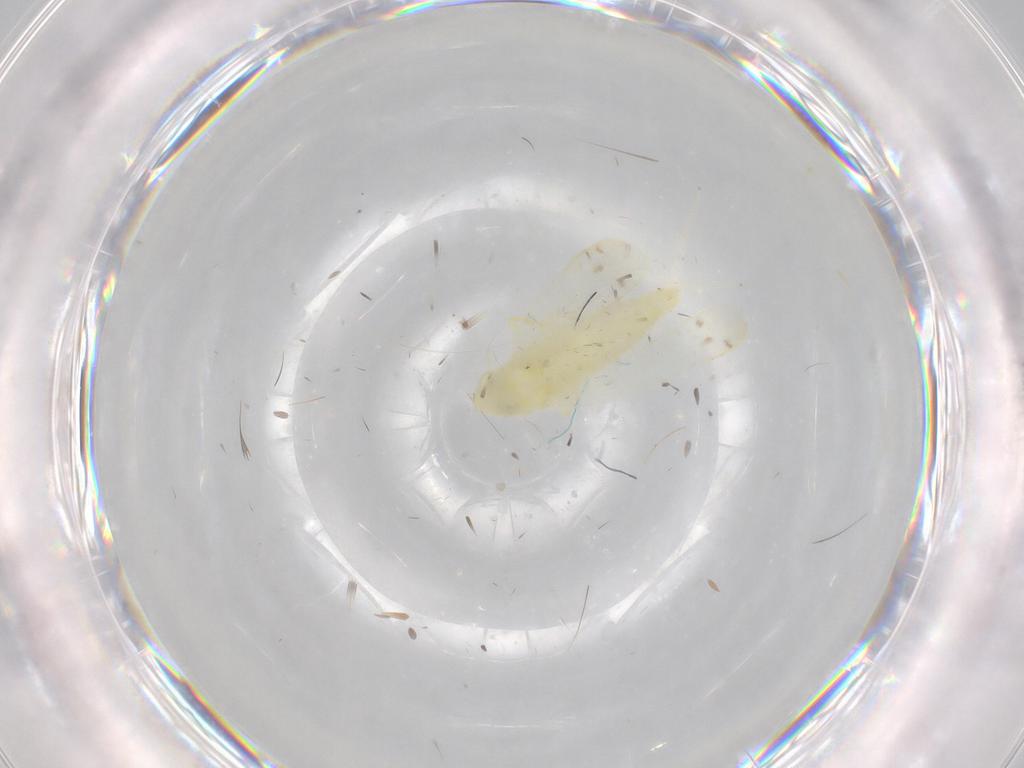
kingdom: Animalia
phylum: Arthropoda
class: Insecta
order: Hemiptera
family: Cicadellidae
